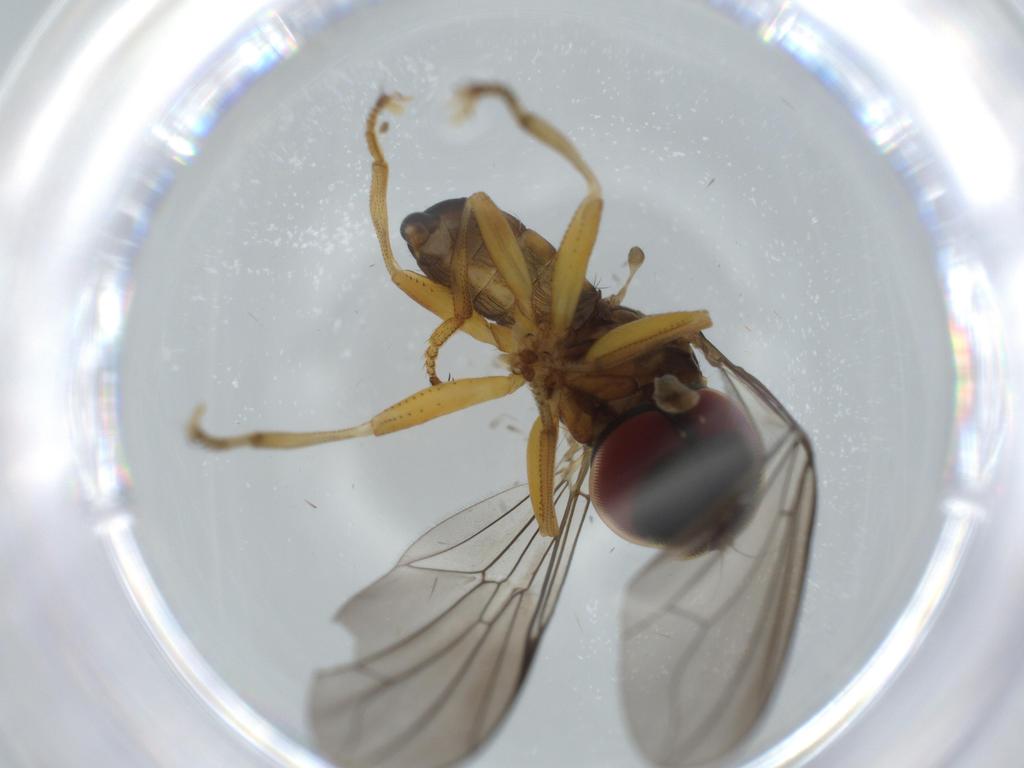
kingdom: Animalia
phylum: Arthropoda
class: Insecta
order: Diptera
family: Pipunculidae
